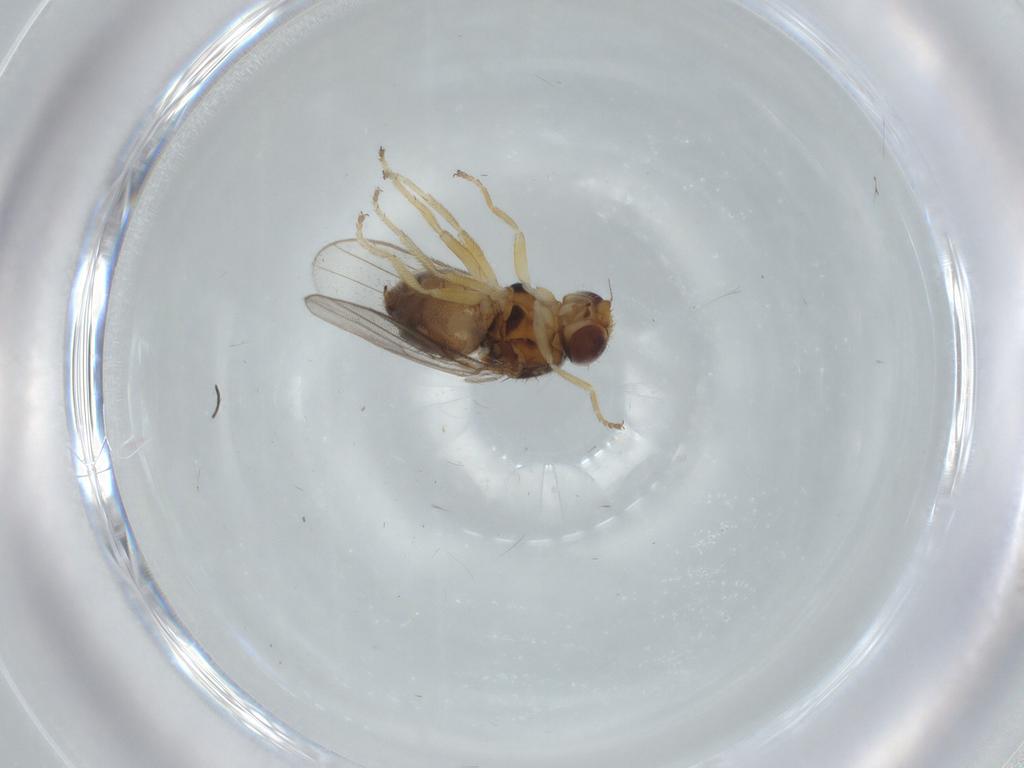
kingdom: Animalia
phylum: Arthropoda
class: Insecta
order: Diptera
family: Chloropidae
